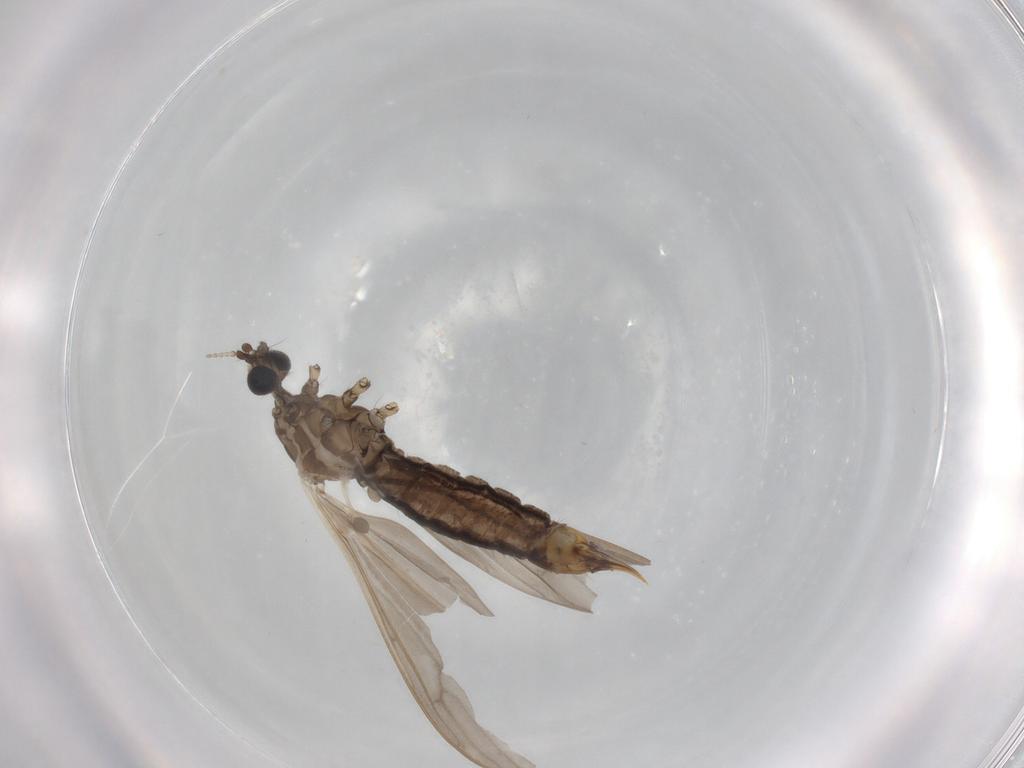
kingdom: Animalia
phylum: Arthropoda
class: Insecta
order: Diptera
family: Limoniidae
